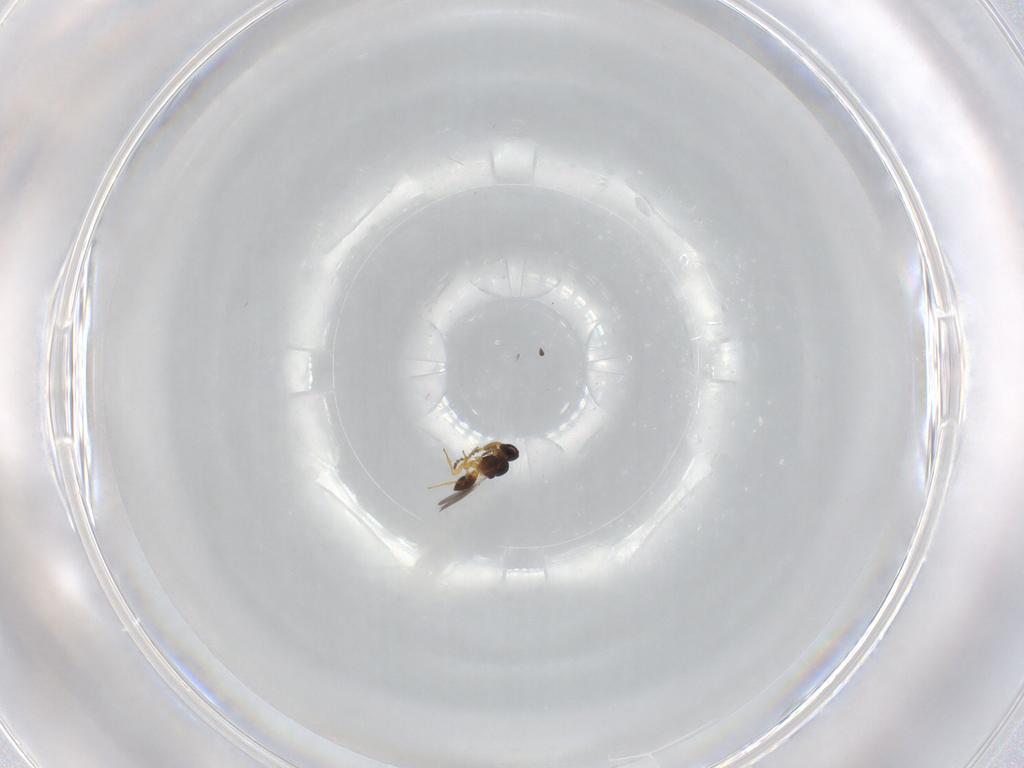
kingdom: Animalia
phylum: Arthropoda
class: Insecta
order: Hymenoptera
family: Platygastridae
